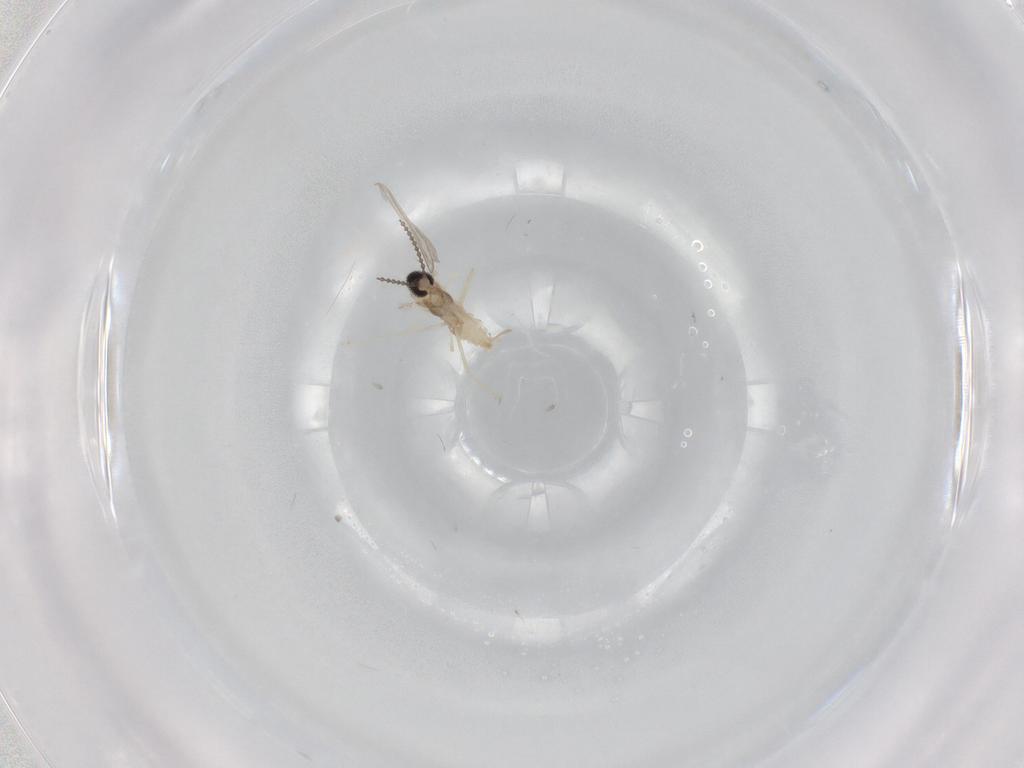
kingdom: Animalia
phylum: Arthropoda
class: Insecta
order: Diptera
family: Cecidomyiidae
